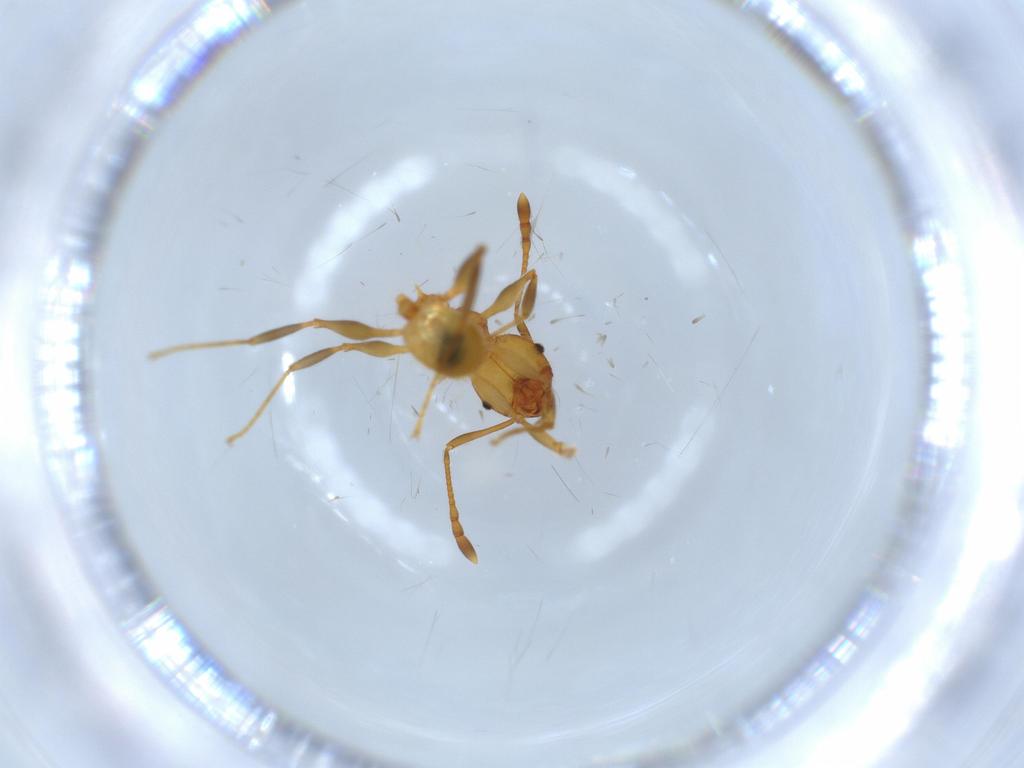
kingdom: Animalia
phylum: Arthropoda
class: Insecta
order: Hymenoptera
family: Formicidae
